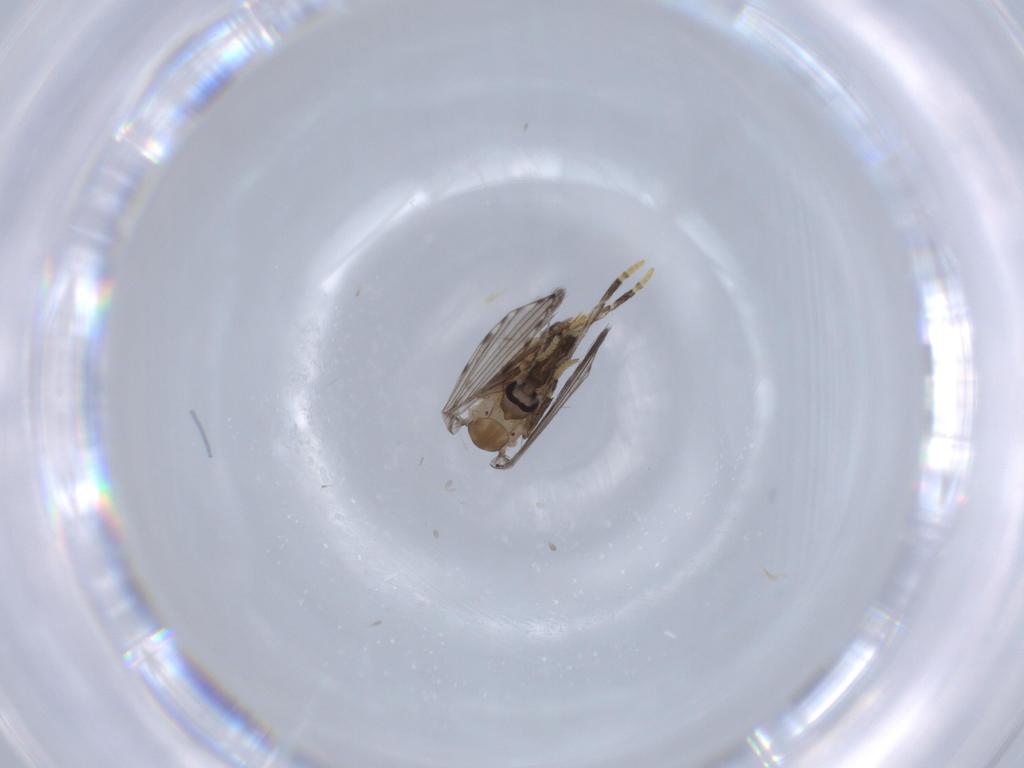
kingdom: Animalia
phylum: Arthropoda
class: Insecta
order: Diptera
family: Psychodidae
